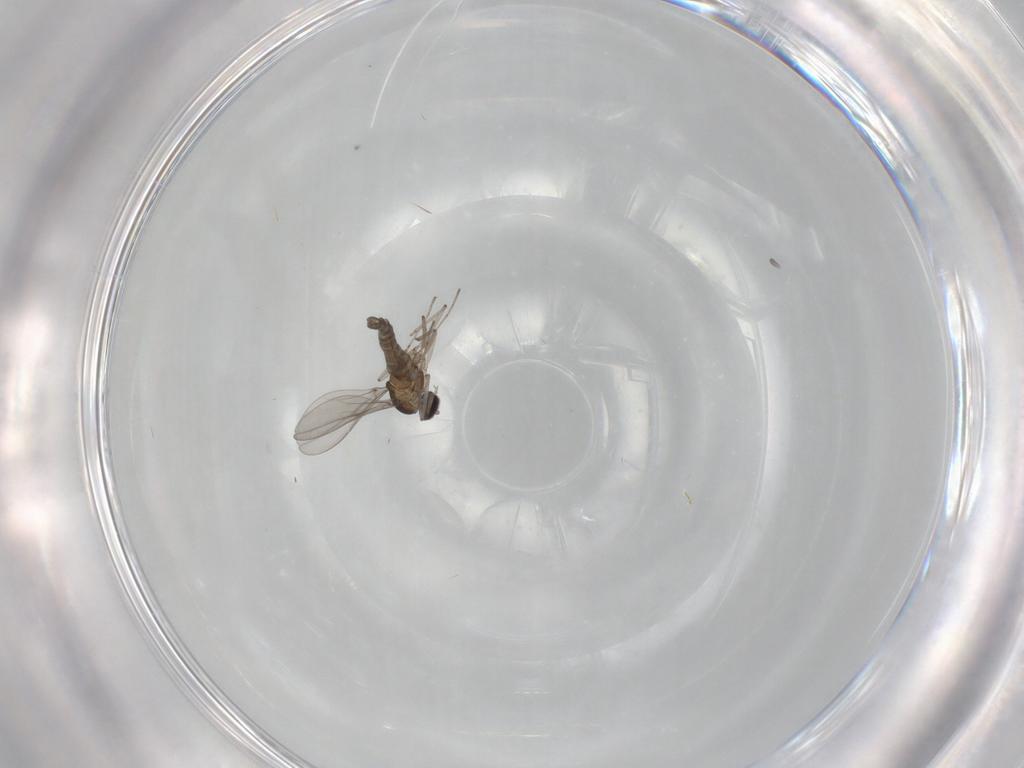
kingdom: Animalia
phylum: Arthropoda
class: Insecta
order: Diptera
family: Cecidomyiidae
